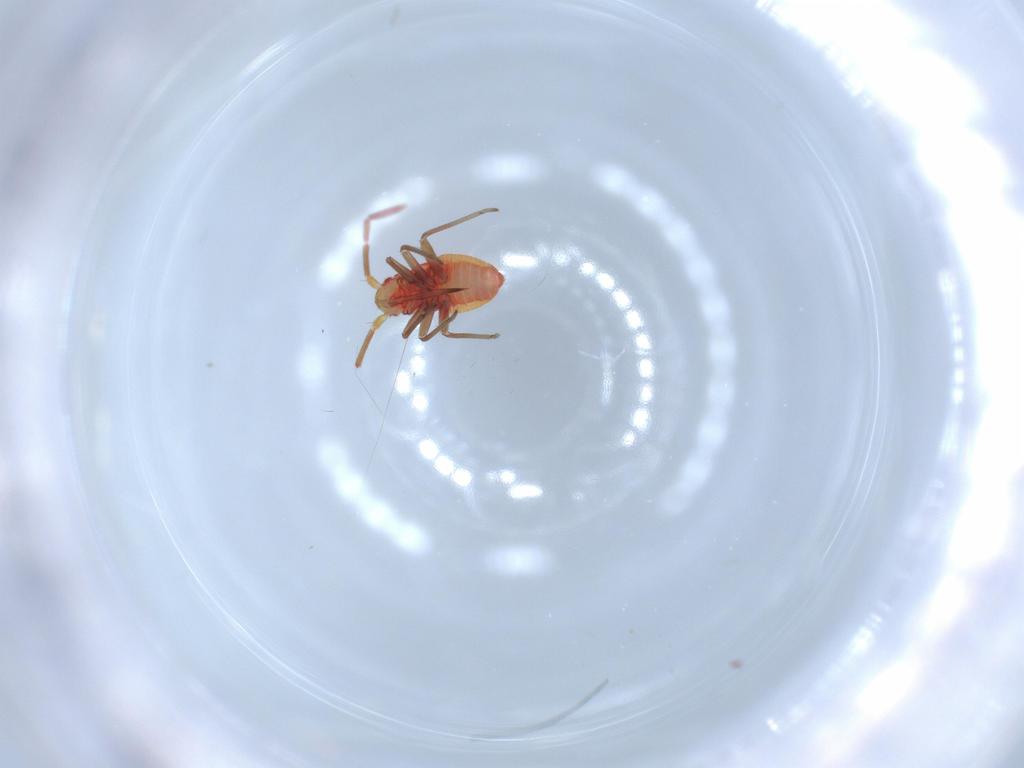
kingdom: Animalia
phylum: Arthropoda
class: Insecta
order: Hemiptera
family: Miridae
